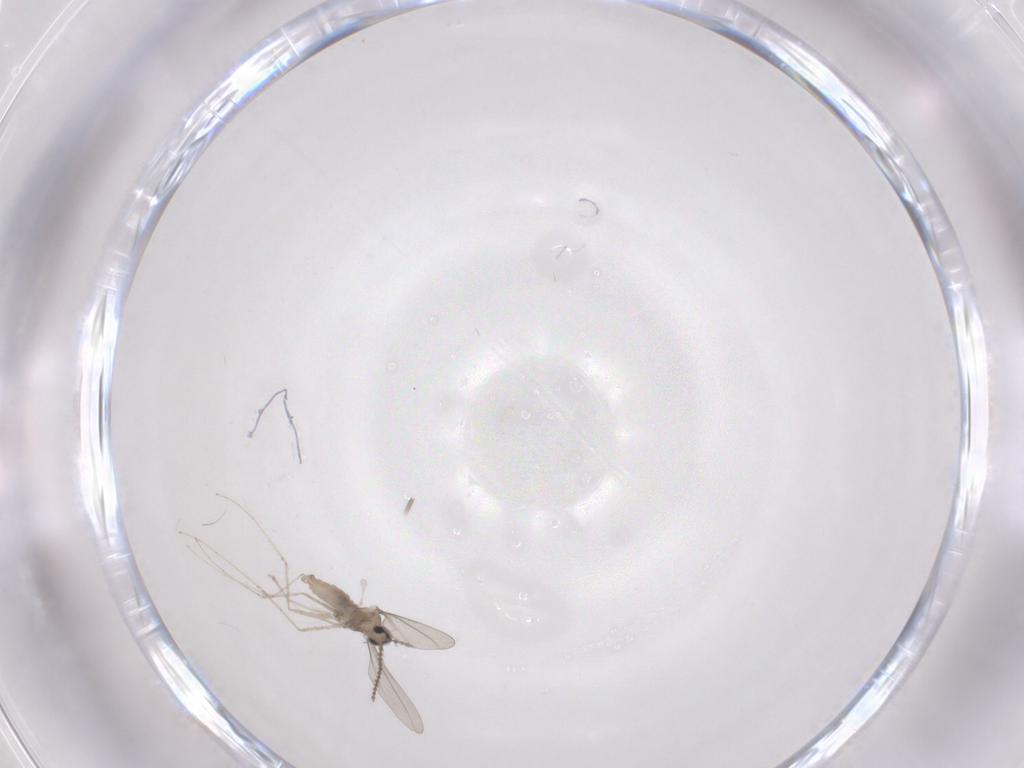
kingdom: Animalia
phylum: Arthropoda
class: Insecta
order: Diptera
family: Cecidomyiidae
